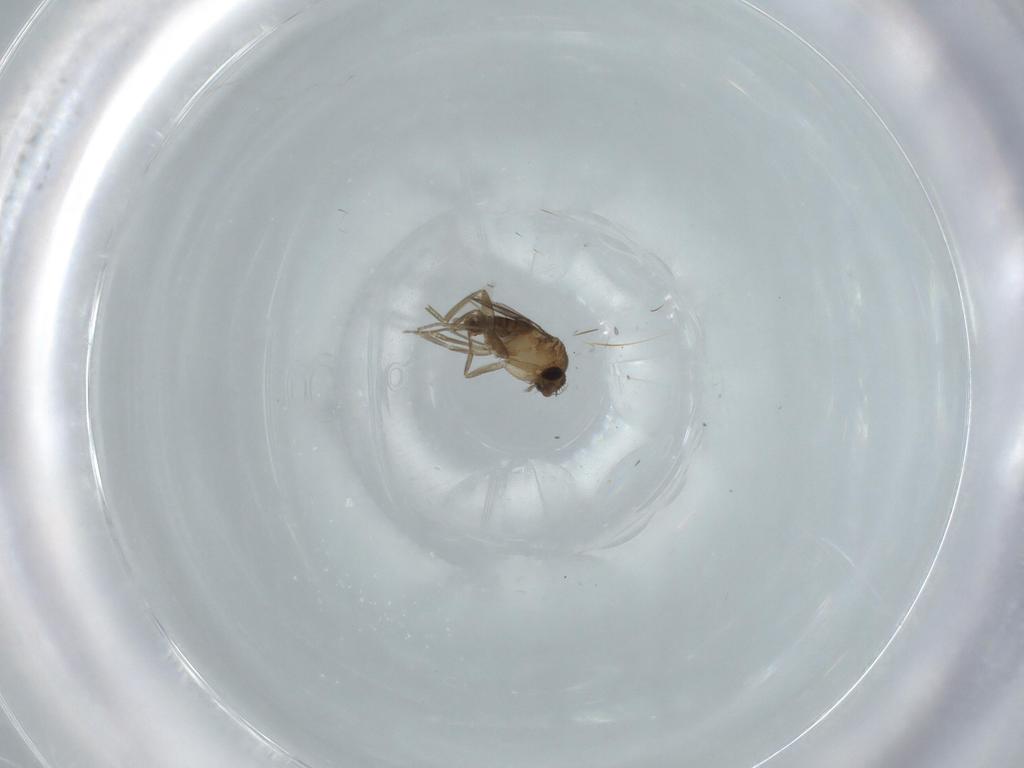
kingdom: Animalia
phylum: Arthropoda
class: Insecta
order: Diptera
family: Phoridae
